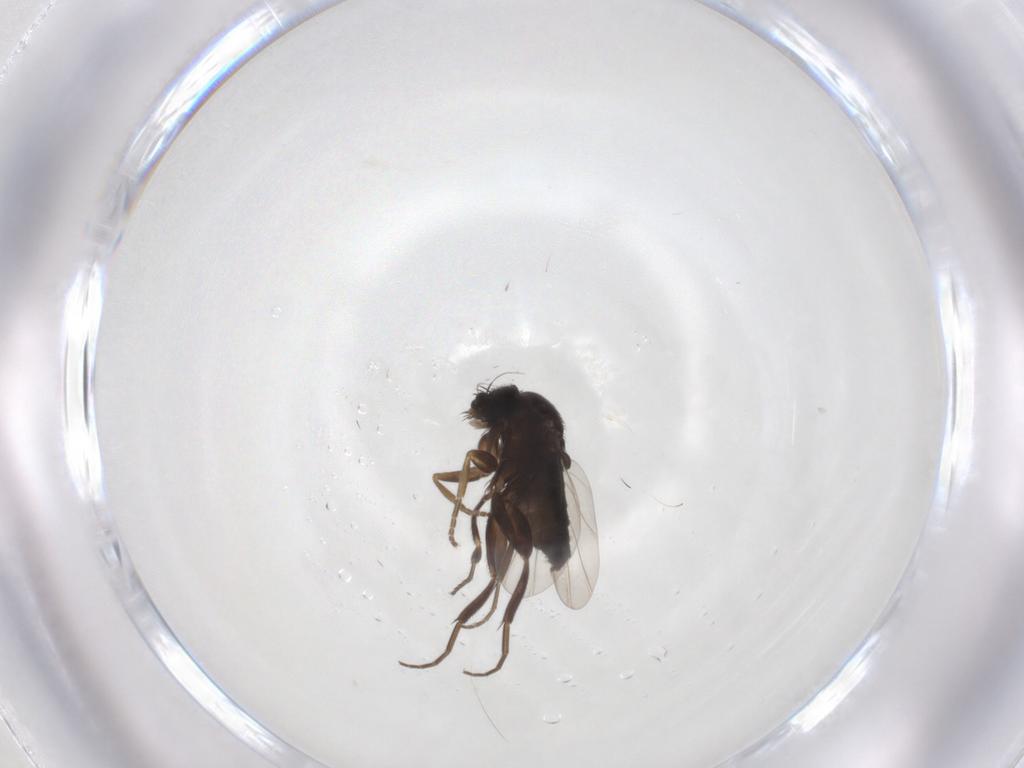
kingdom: Animalia
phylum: Arthropoda
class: Insecta
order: Diptera
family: Phoridae
